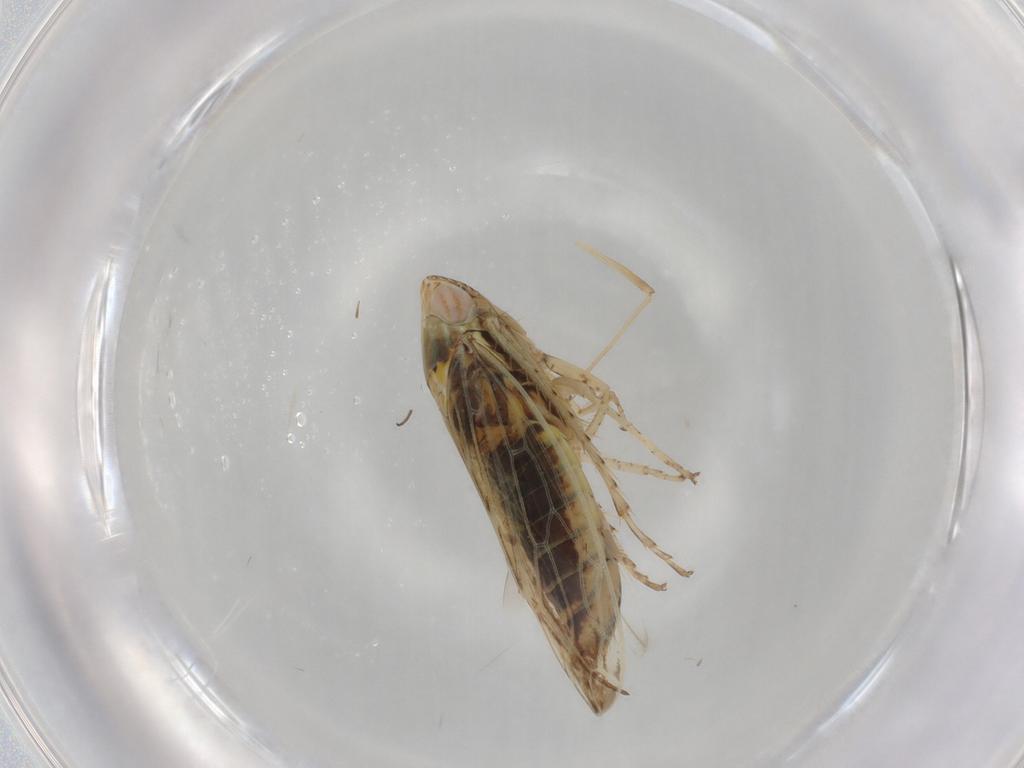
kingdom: Animalia
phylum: Arthropoda
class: Insecta
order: Hemiptera
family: Cicadellidae
